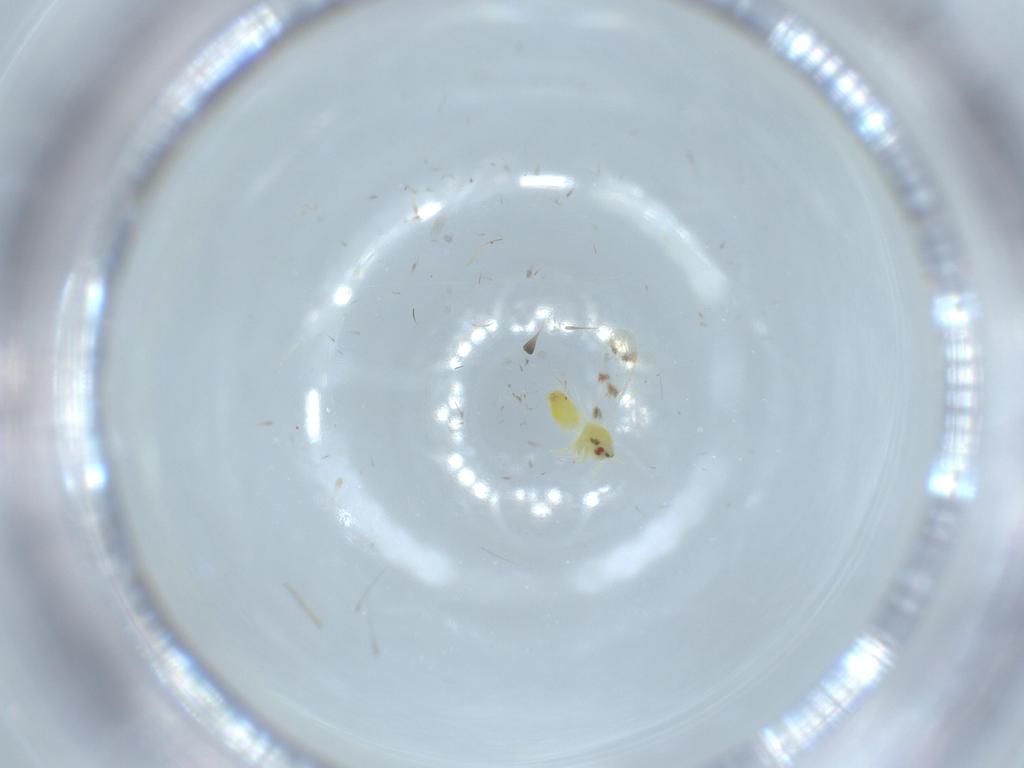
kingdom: Animalia
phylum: Arthropoda
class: Insecta
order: Hemiptera
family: Aleyrodidae
